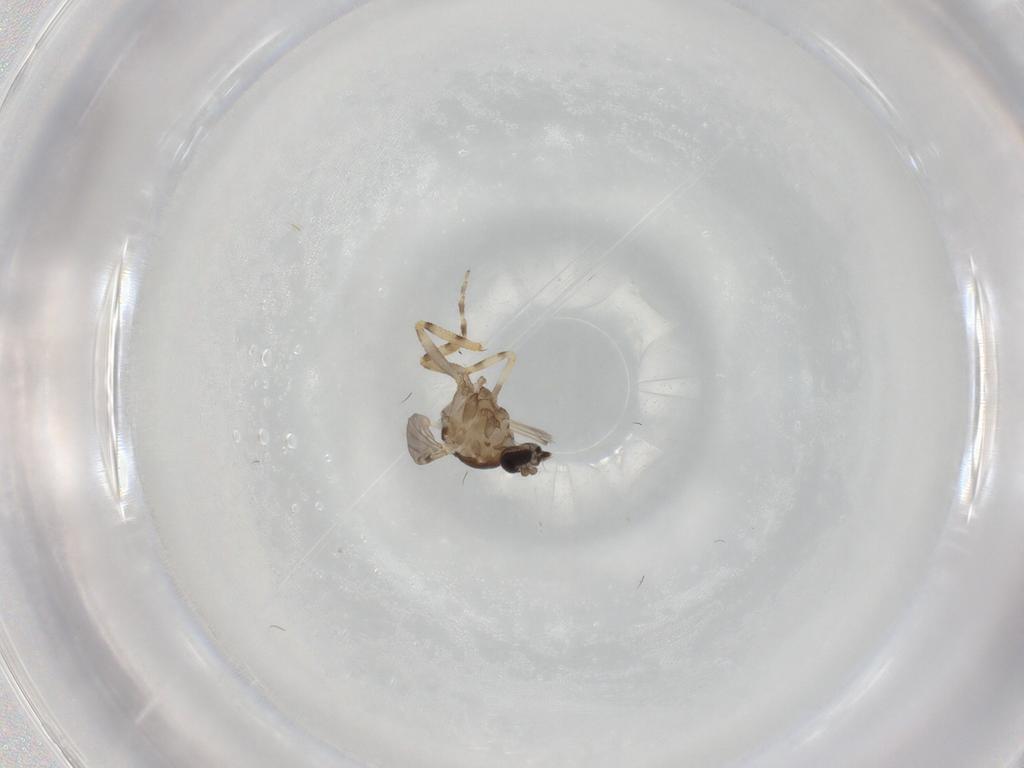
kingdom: Animalia
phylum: Arthropoda
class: Insecta
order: Diptera
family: Ceratopogonidae
